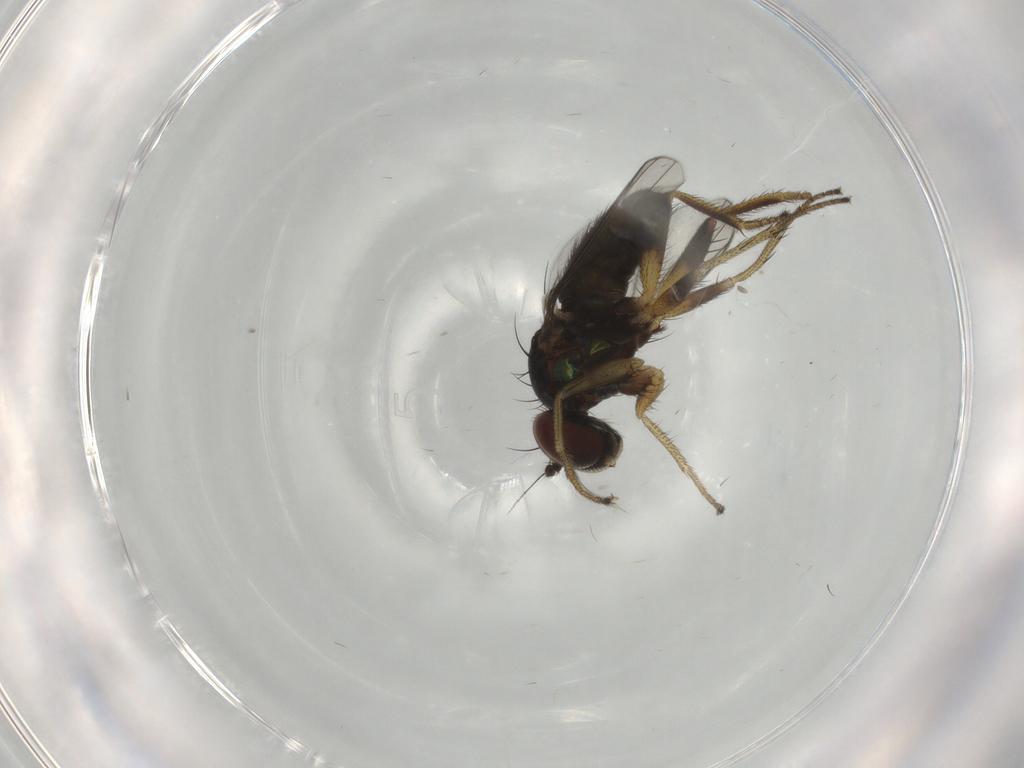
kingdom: Animalia
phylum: Arthropoda
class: Insecta
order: Diptera
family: Dolichopodidae
